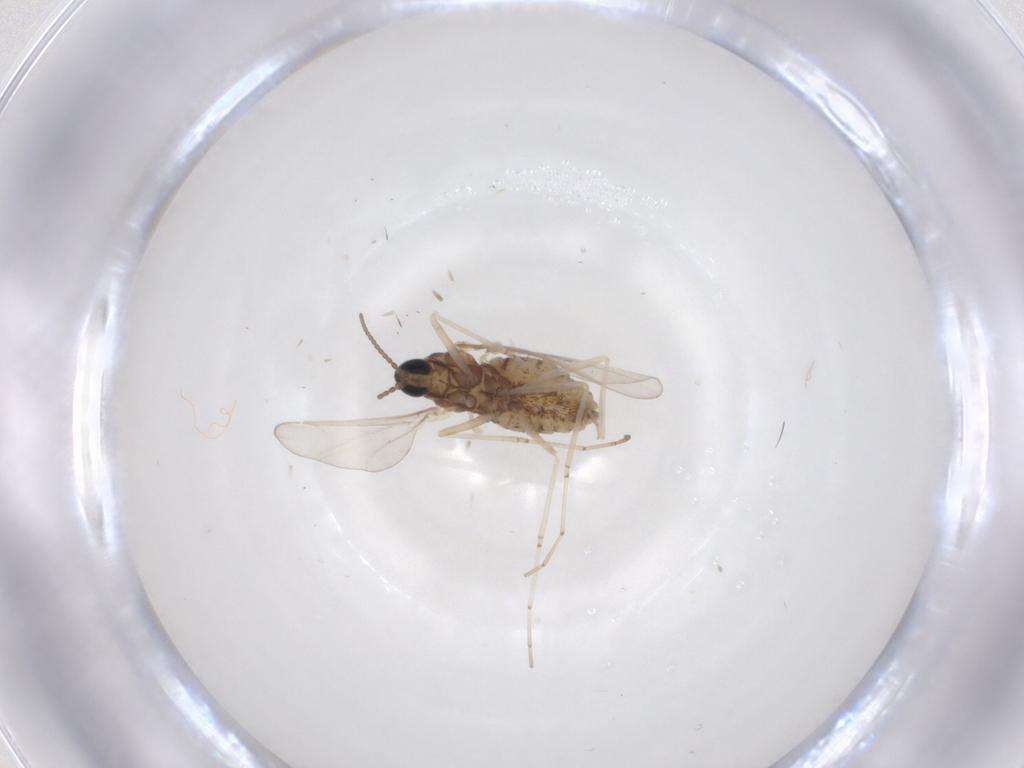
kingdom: Animalia
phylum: Arthropoda
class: Insecta
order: Diptera
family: Cecidomyiidae
